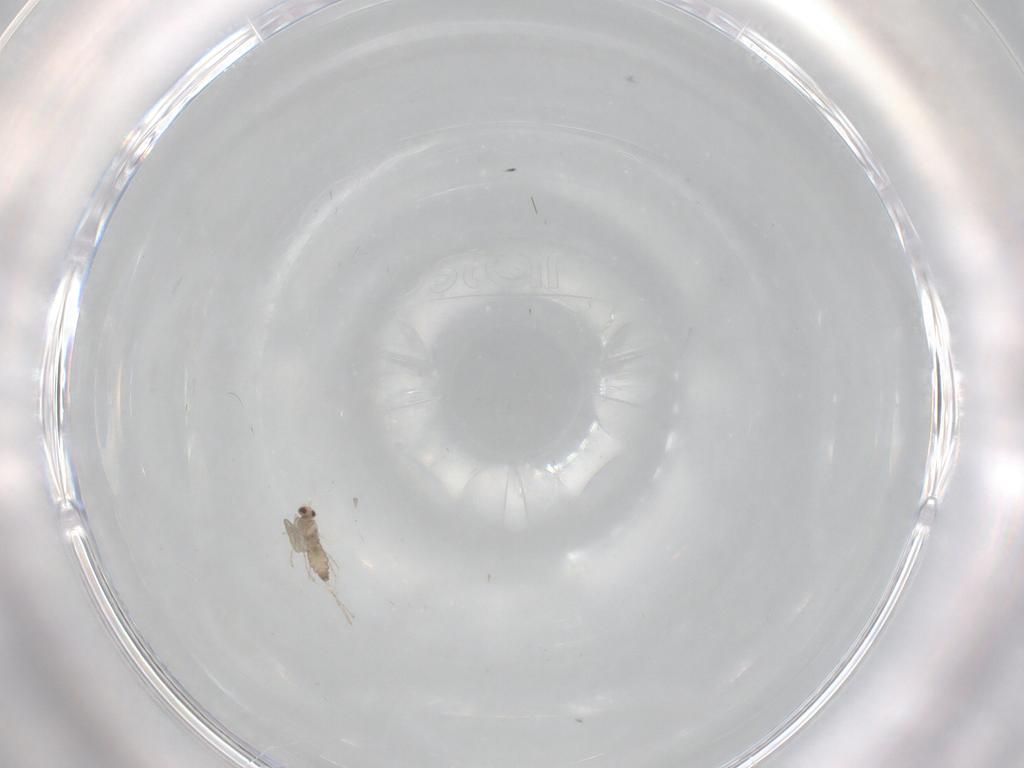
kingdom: Animalia
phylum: Arthropoda
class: Insecta
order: Diptera
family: Cecidomyiidae
